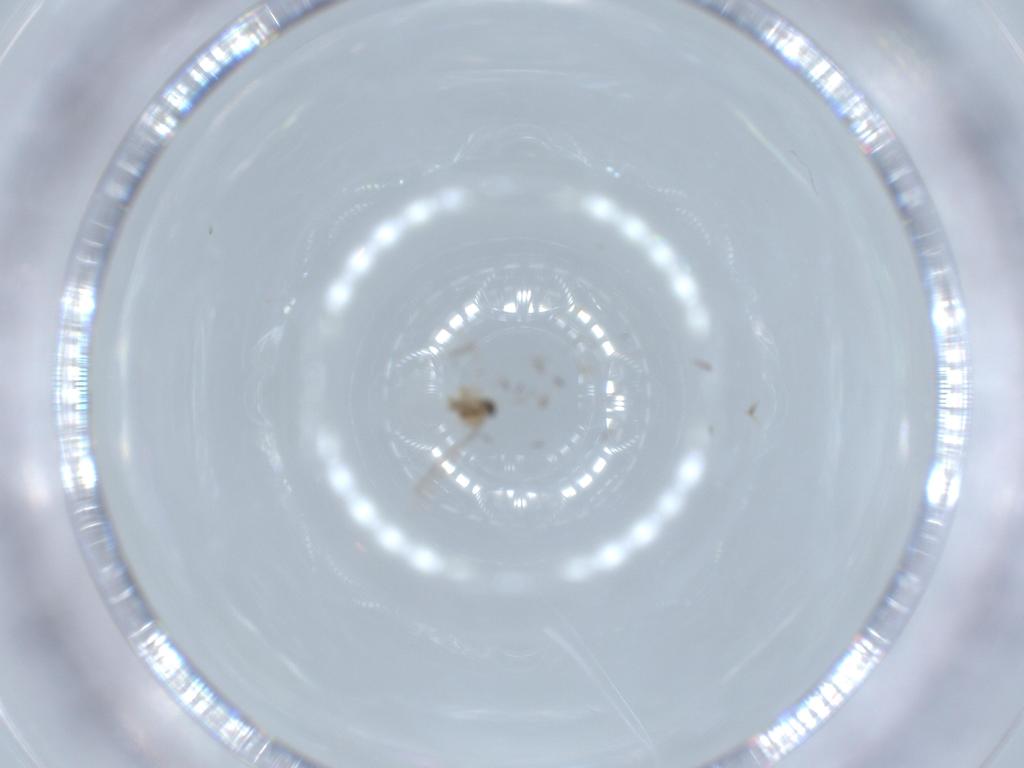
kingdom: Animalia
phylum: Arthropoda
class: Insecta
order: Diptera
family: Cecidomyiidae
